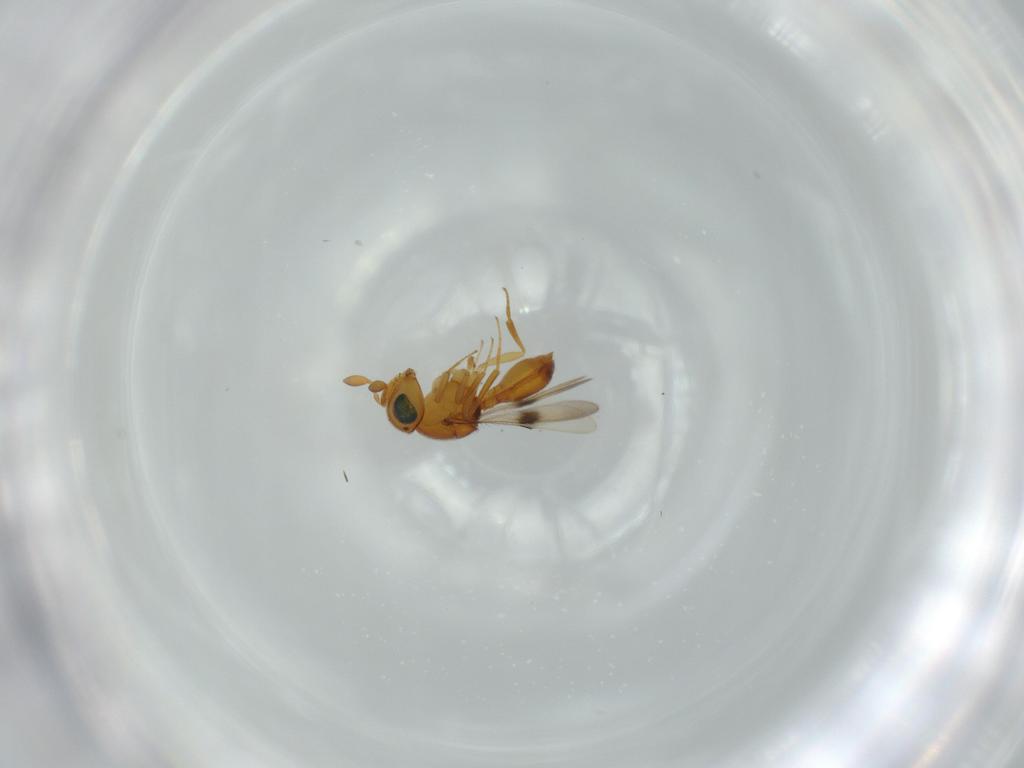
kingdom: Animalia
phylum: Arthropoda
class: Insecta
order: Hymenoptera
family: Scelionidae
